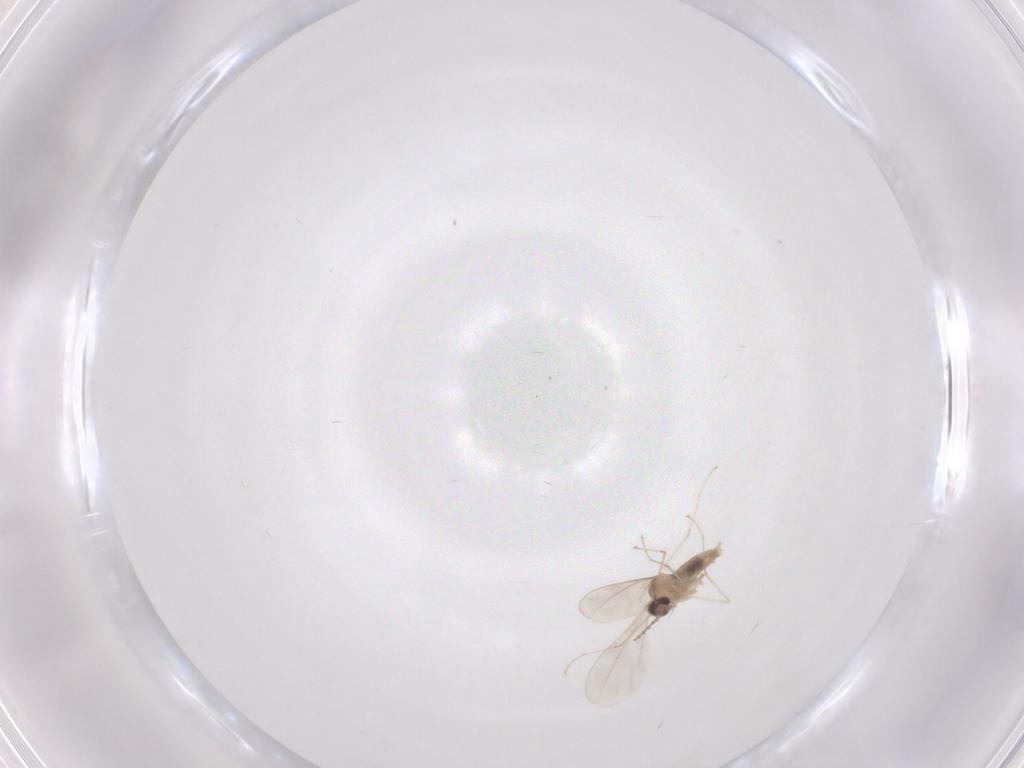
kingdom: Animalia
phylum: Arthropoda
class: Insecta
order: Diptera
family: Cecidomyiidae
